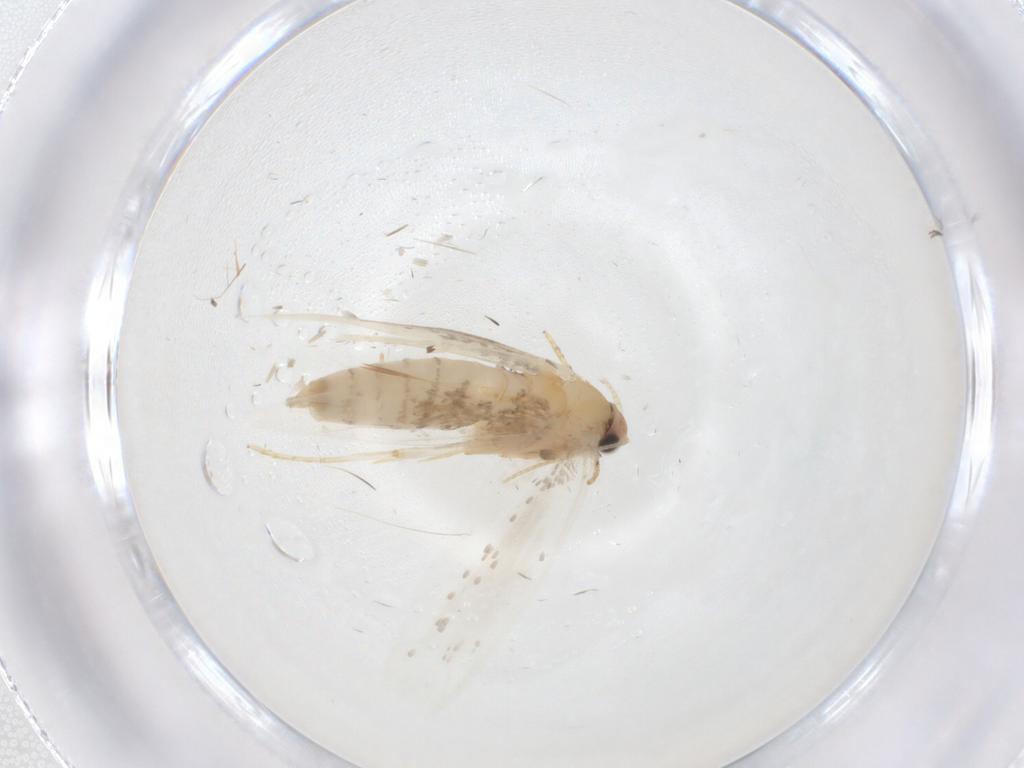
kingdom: Animalia
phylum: Arthropoda
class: Insecta
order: Lepidoptera
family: Tineidae
